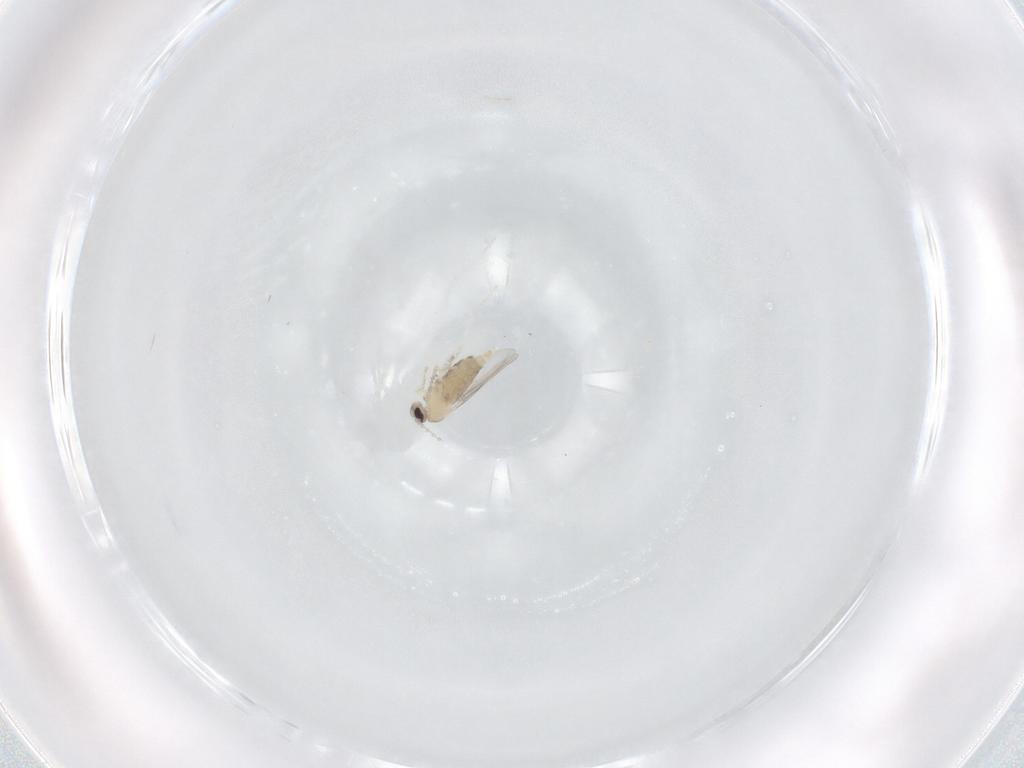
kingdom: Animalia
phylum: Arthropoda
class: Insecta
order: Diptera
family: Cecidomyiidae
